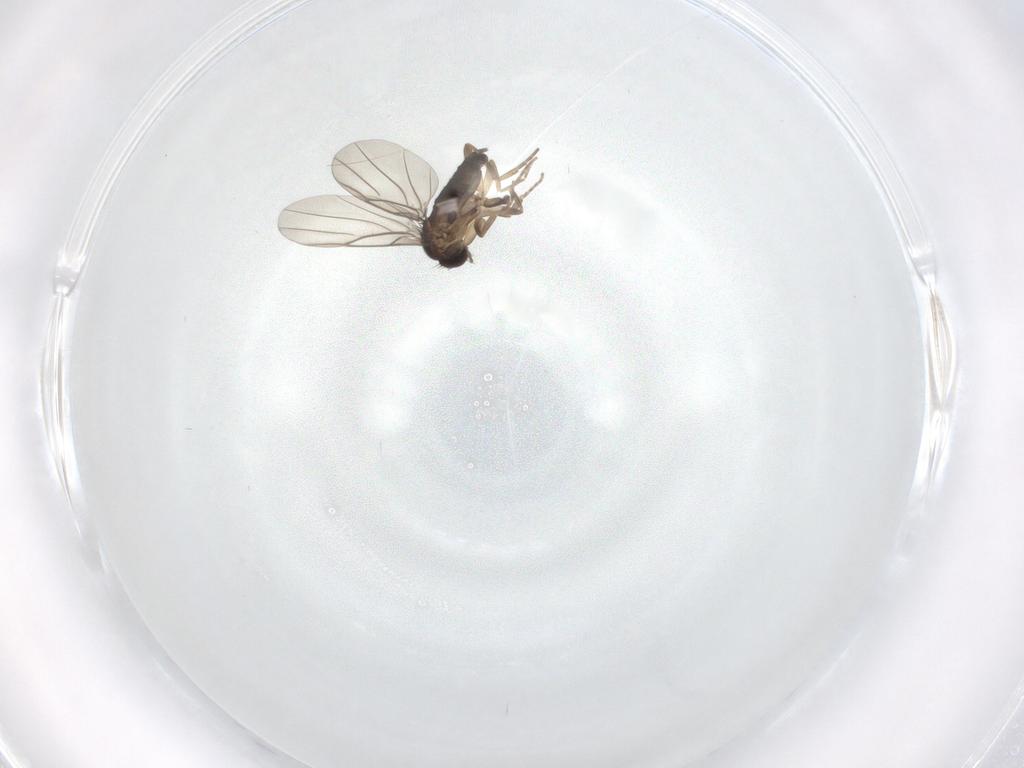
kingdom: Animalia
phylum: Arthropoda
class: Insecta
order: Diptera
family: Phoridae
